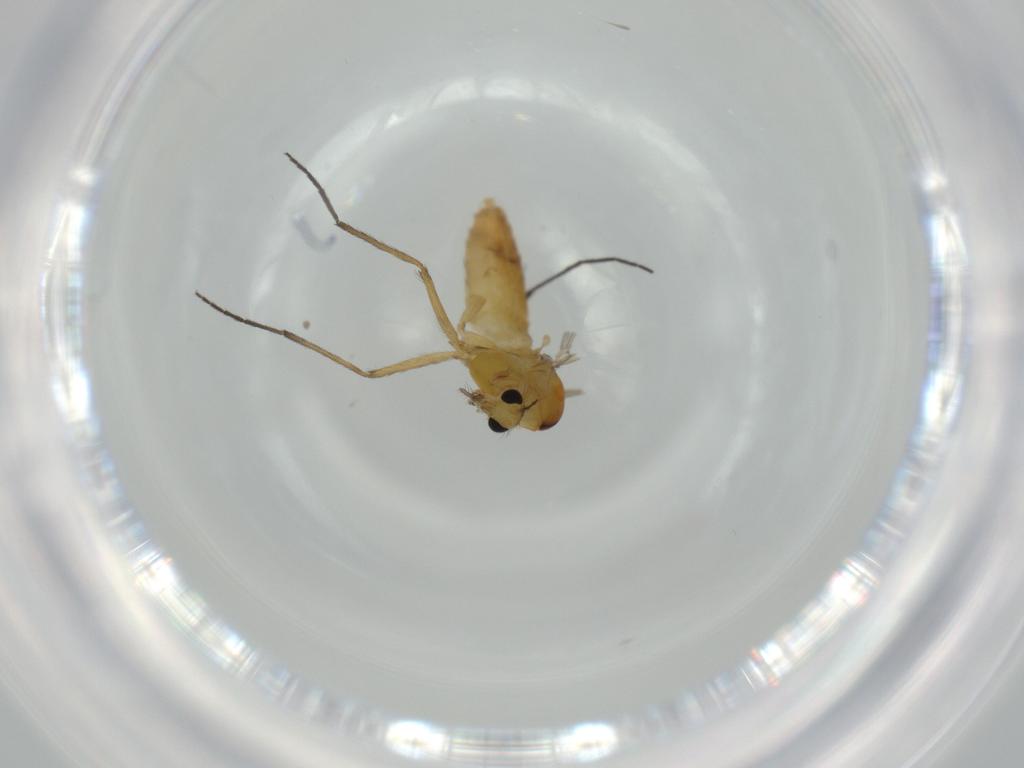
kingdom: Animalia
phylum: Arthropoda
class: Insecta
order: Diptera
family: Chironomidae
